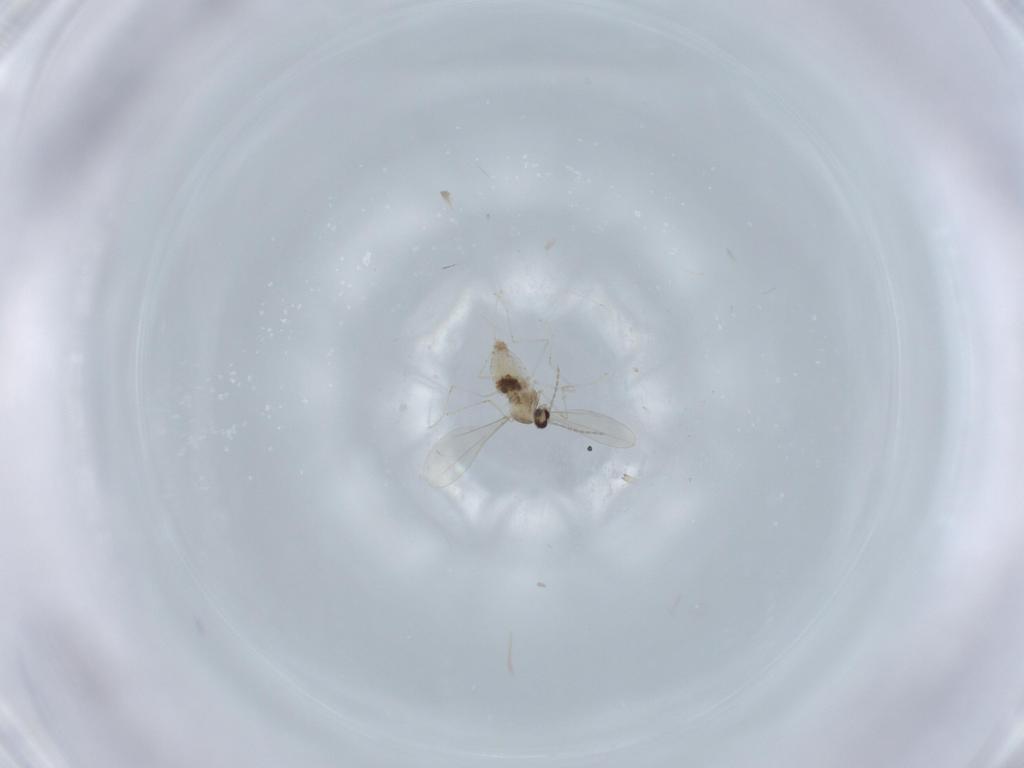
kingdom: Animalia
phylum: Arthropoda
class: Insecta
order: Diptera
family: Cecidomyiidae
